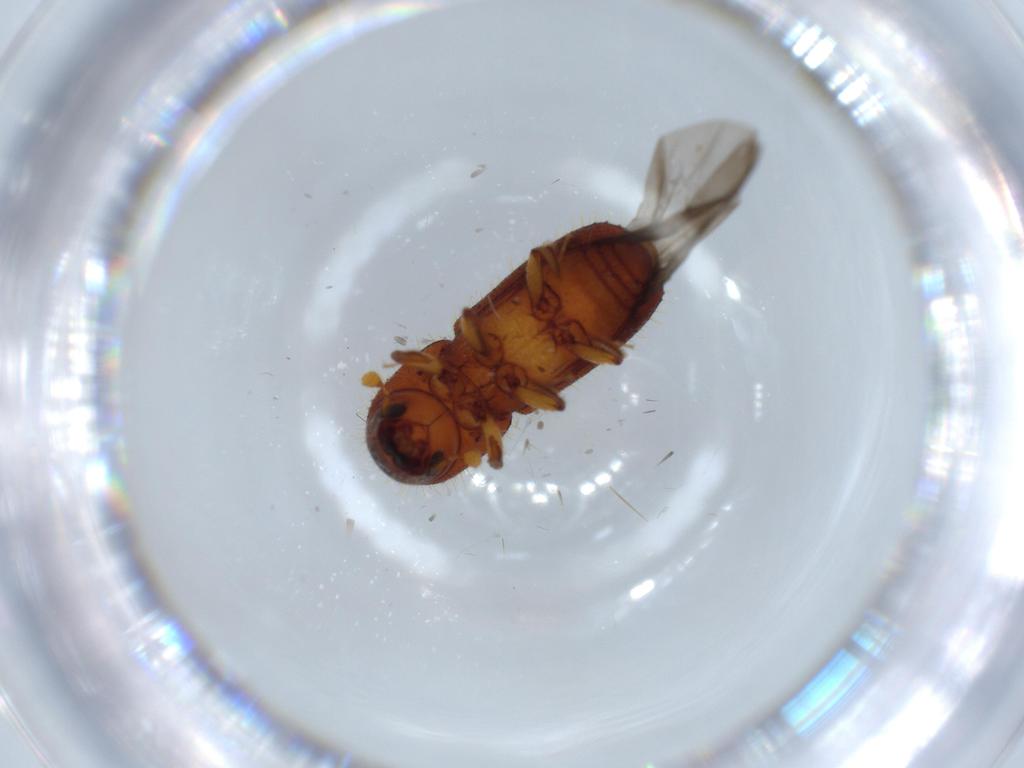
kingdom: Animalia
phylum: Arthropoda
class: Insecta
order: Coleoptera
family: Curculionidae
